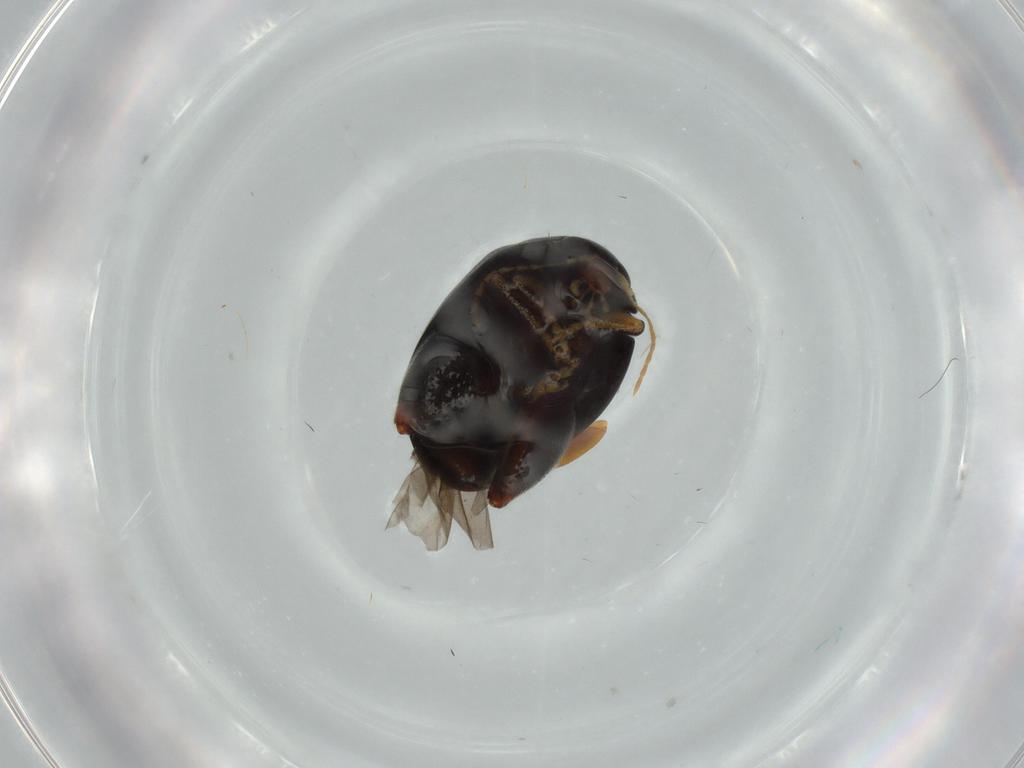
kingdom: Animalia
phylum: Arthropoda
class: Insecta
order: Coleoptera
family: Chrysomelidae
